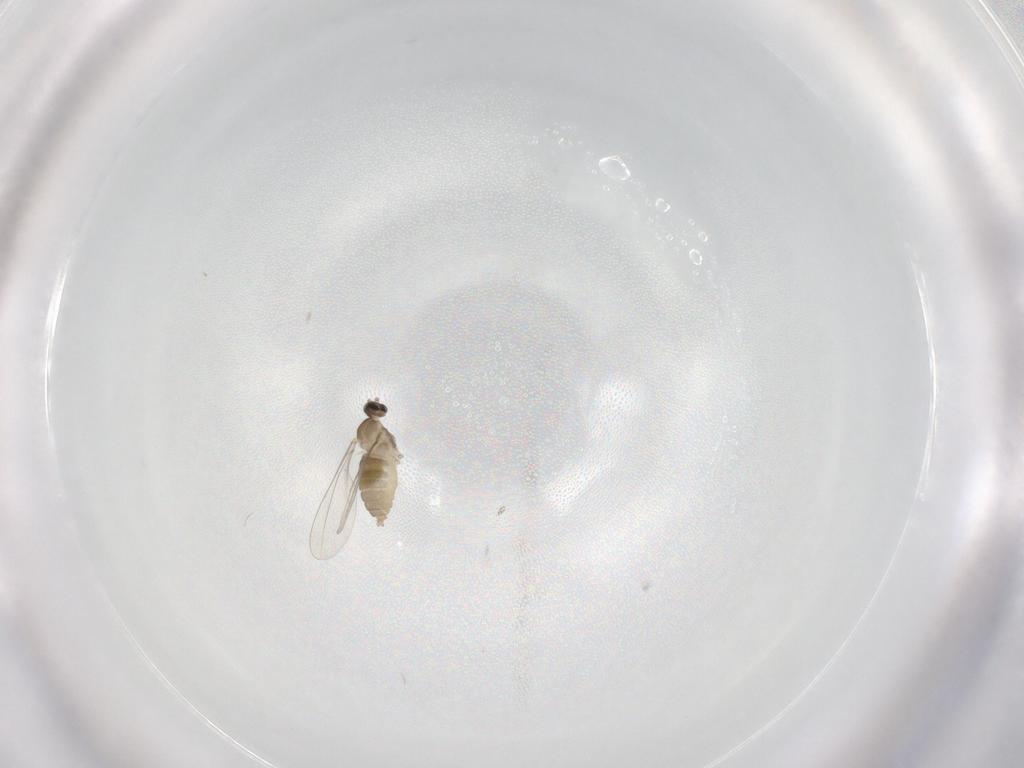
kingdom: Animalia
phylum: Arthropoda
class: Insecta
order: Diptera
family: Cecidomyiidae
